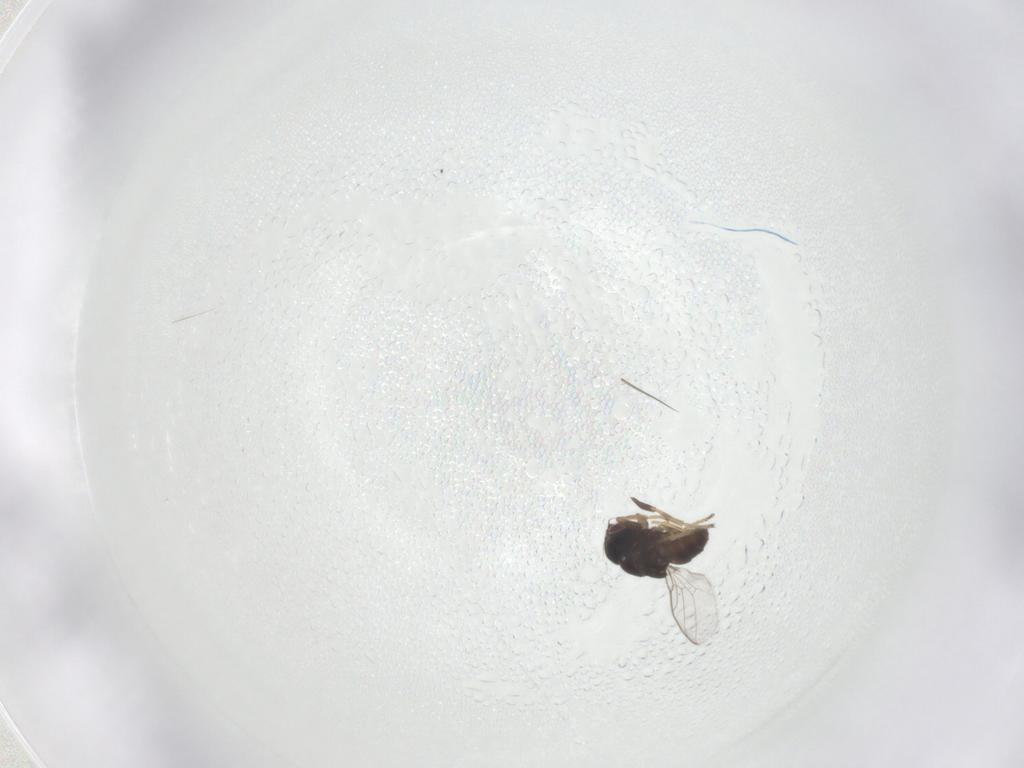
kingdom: Animalia
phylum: Arthropoda
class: Insecta
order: Diptera
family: Chloropidae
